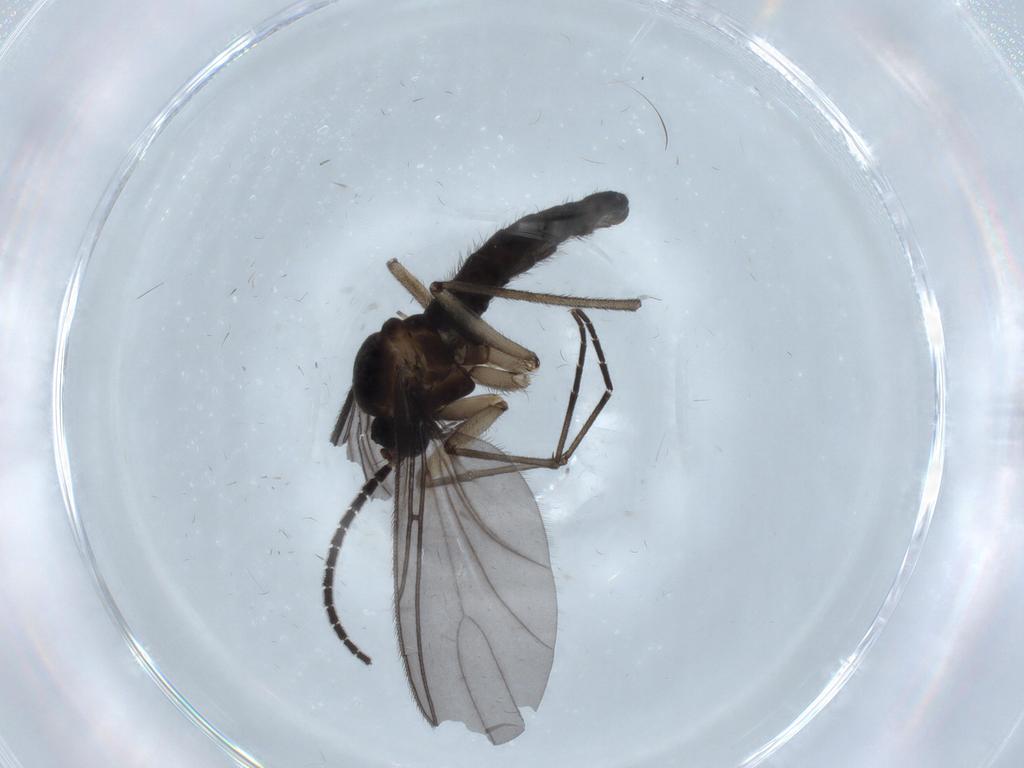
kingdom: Animalia
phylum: Arthropoda
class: Insecta
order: Diptera
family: Sciaridae
